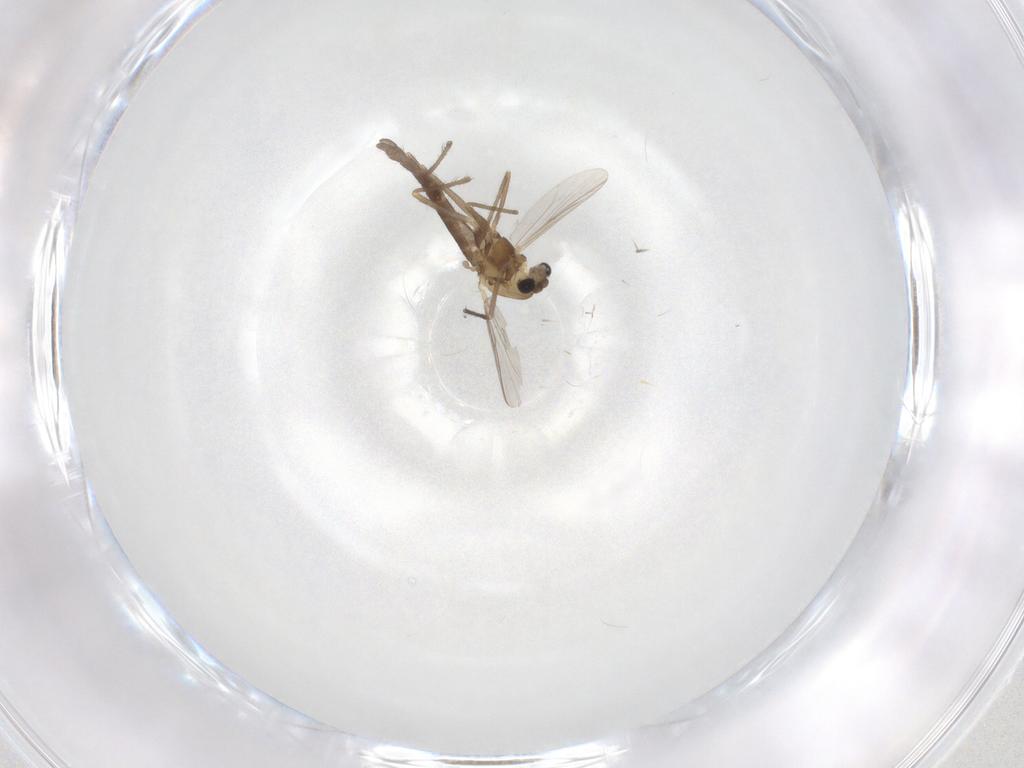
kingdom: Animalia
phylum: Arthropoda
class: Insecta
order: Diptera
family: Chironomidae
